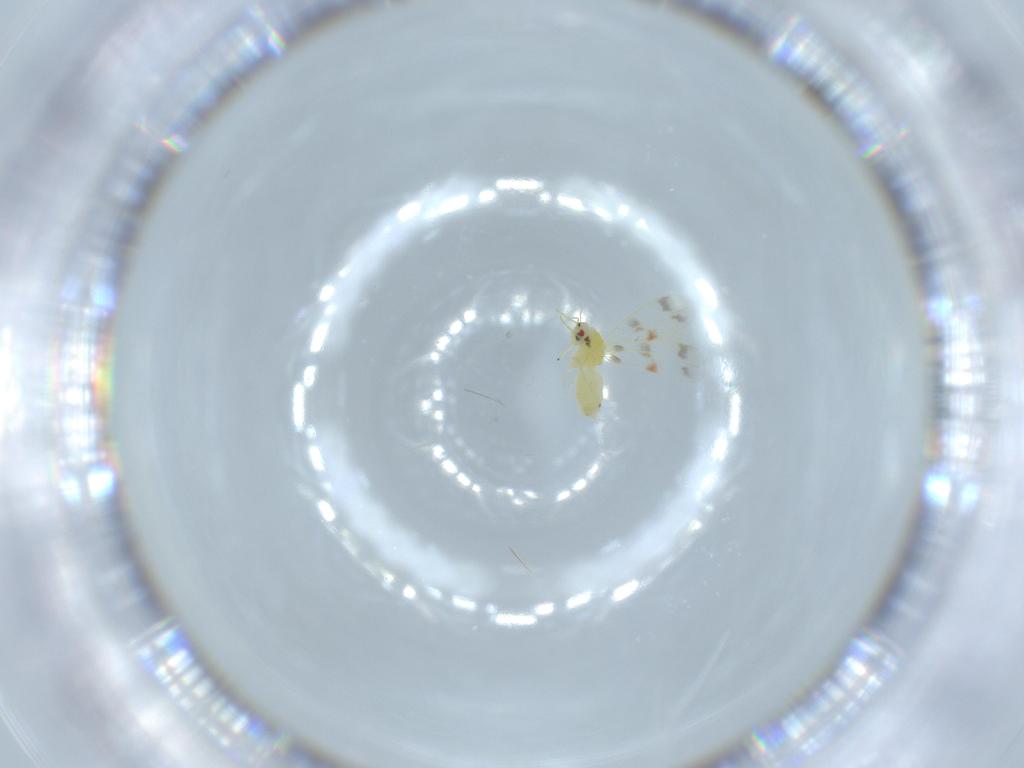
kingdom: Animalia
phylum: Arthropoda
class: Insecta
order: Hemiptera
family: Aleyrodidae
